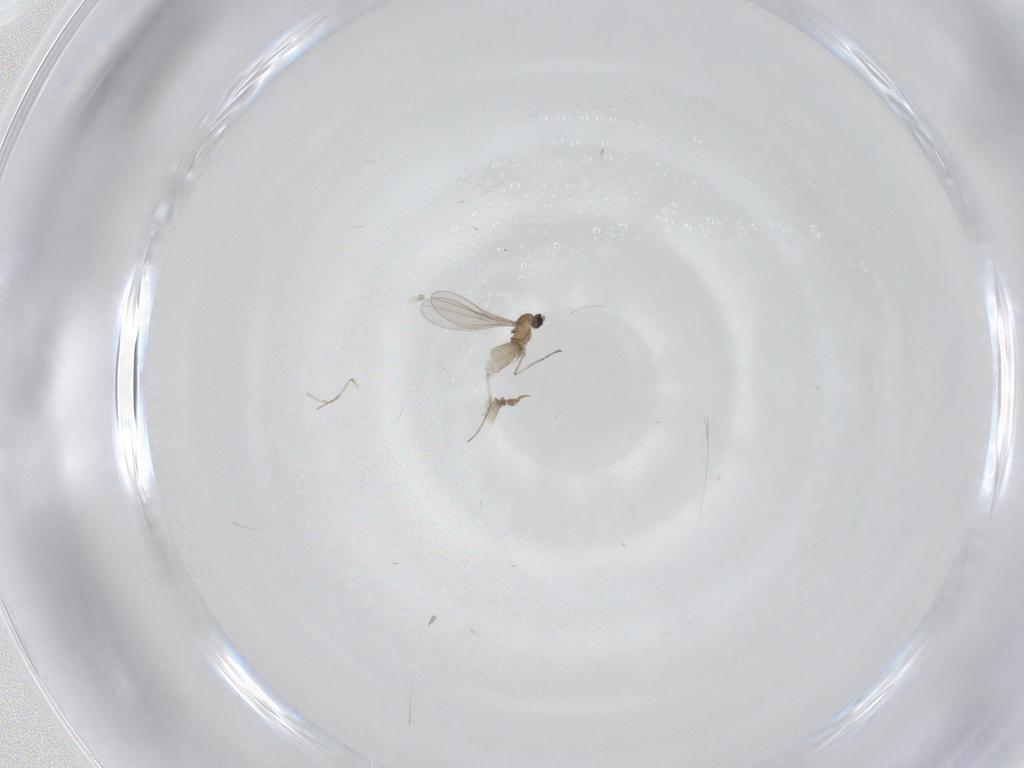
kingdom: Animalia
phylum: Arthropoda
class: Insecta
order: Diptera
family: Cecidomyiidae
